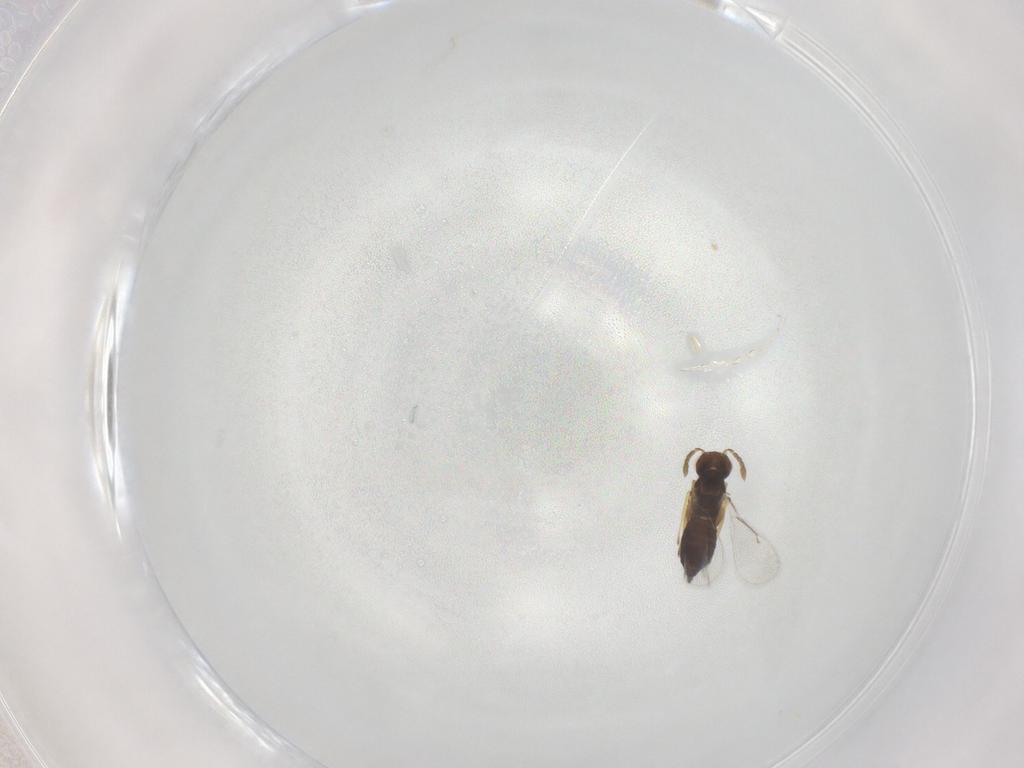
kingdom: Animalia
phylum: Arthropoda
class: Insecta
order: Hymenoptera
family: Eulophidae
